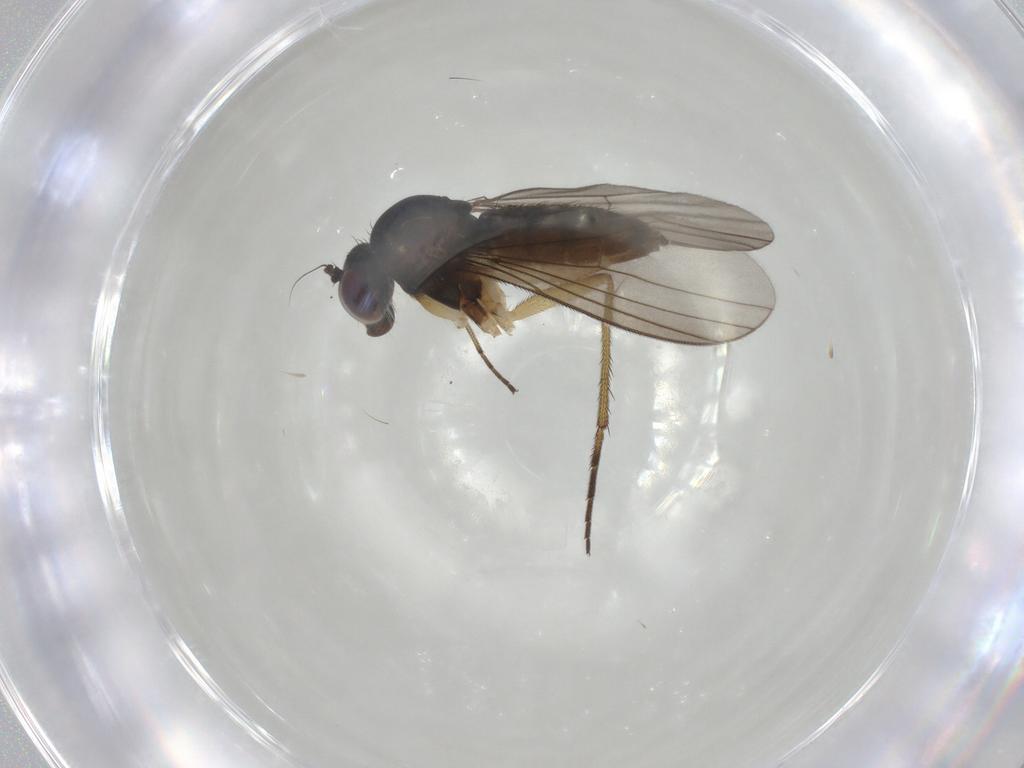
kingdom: Animalia
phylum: Arthropoda
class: Insecta
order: Diptera
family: Dolichopodidae
